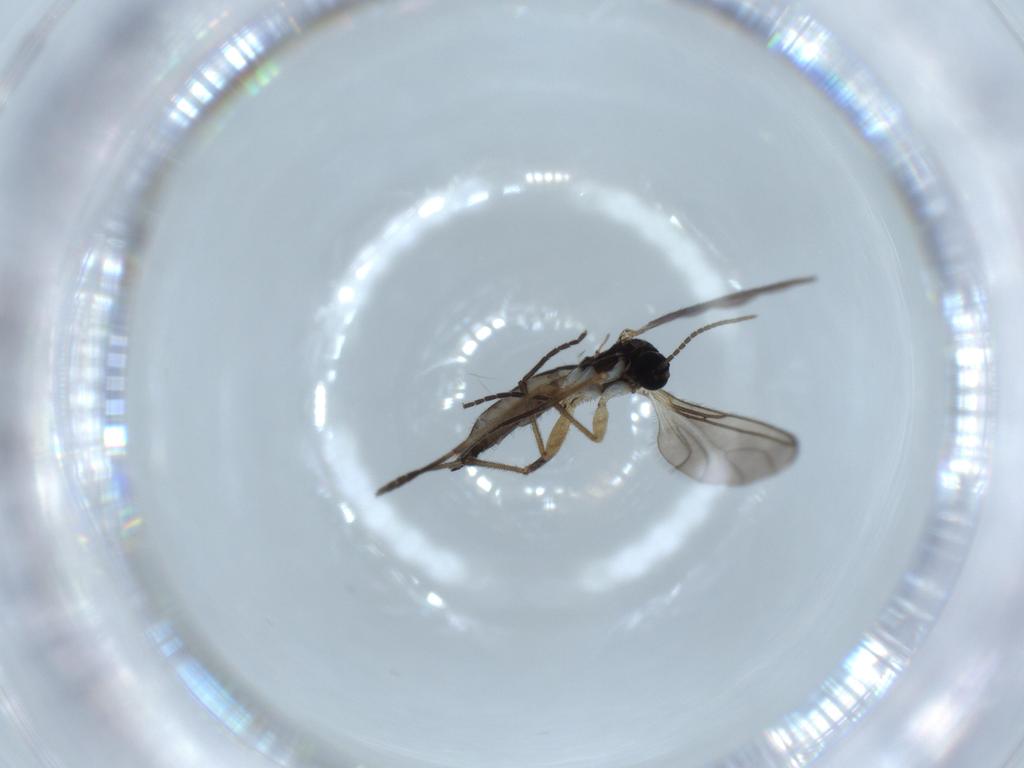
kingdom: Animalia
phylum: Arthropoda
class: Insecta
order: Diptera
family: Sciaridae
